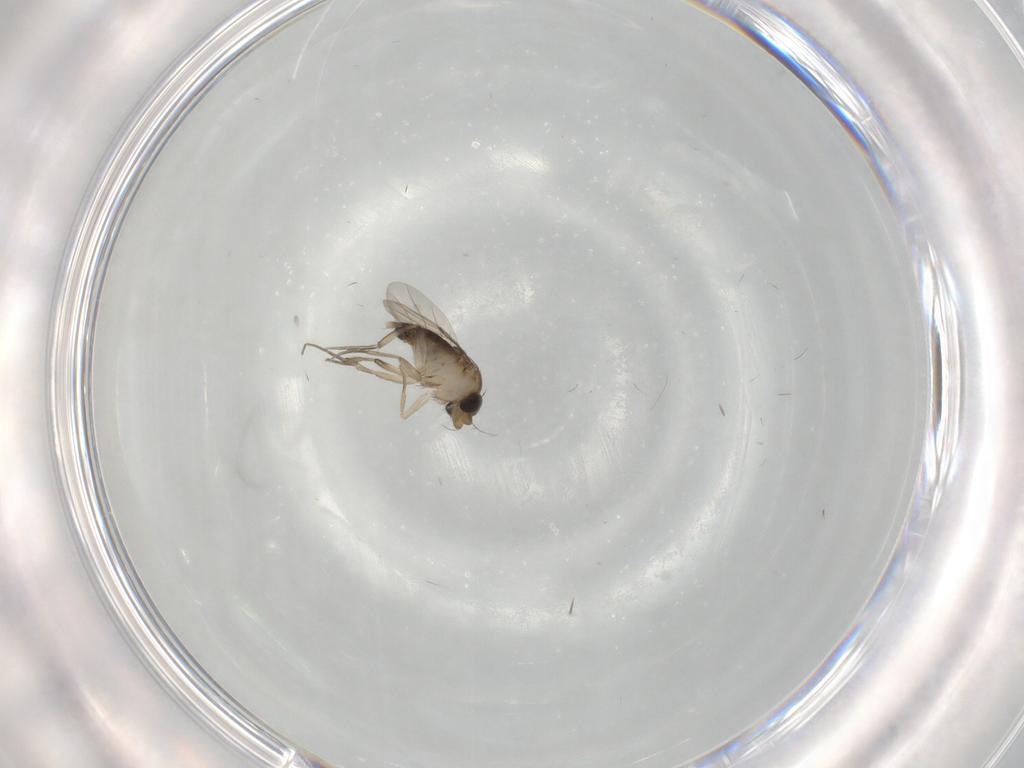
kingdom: Animalia
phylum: Arthropoda
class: Insecta
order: Diptera
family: Phoridae
